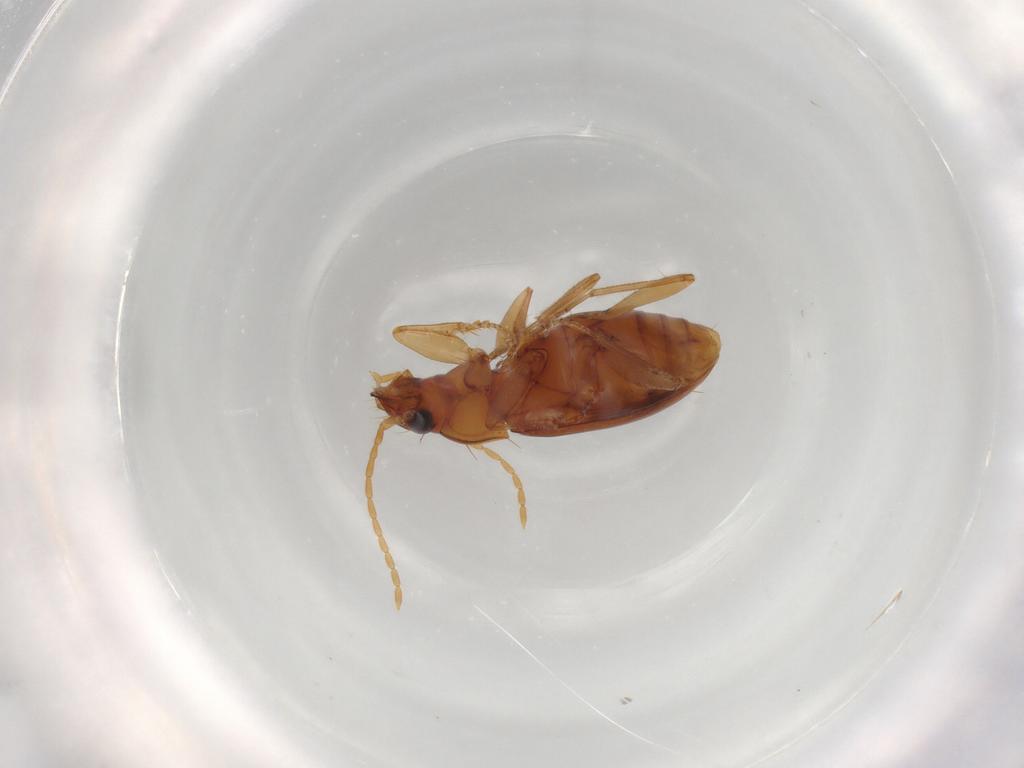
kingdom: Animalia
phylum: Arthropoda
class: Insecta
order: Coleoptera
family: Carabidae
